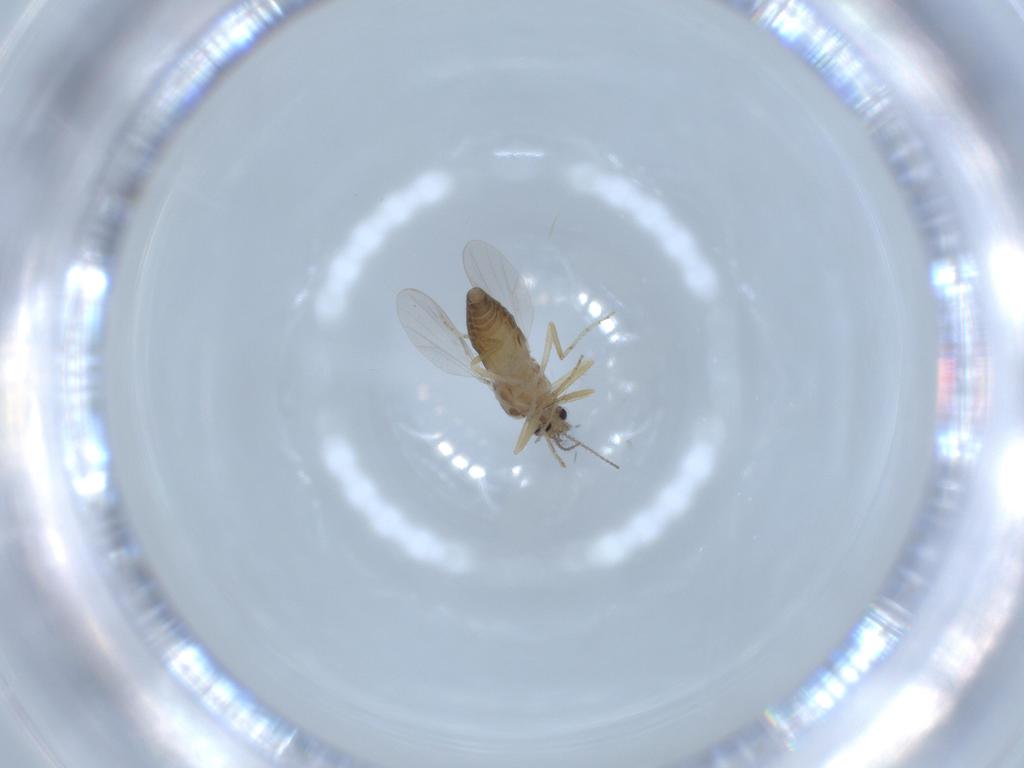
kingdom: Animalia
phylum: Arthropoda
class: Insecta
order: Diptera
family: Ceratopogonidae
